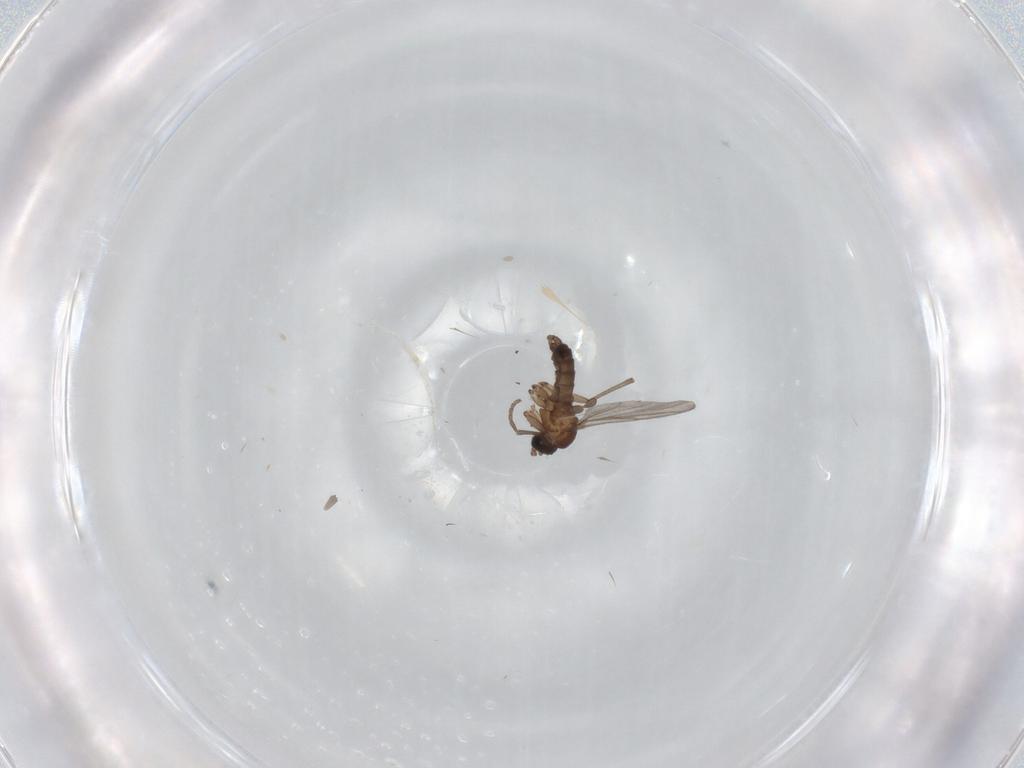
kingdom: Animalia
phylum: Arthropoda
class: Insecta
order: Diptera
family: Sciaridae
